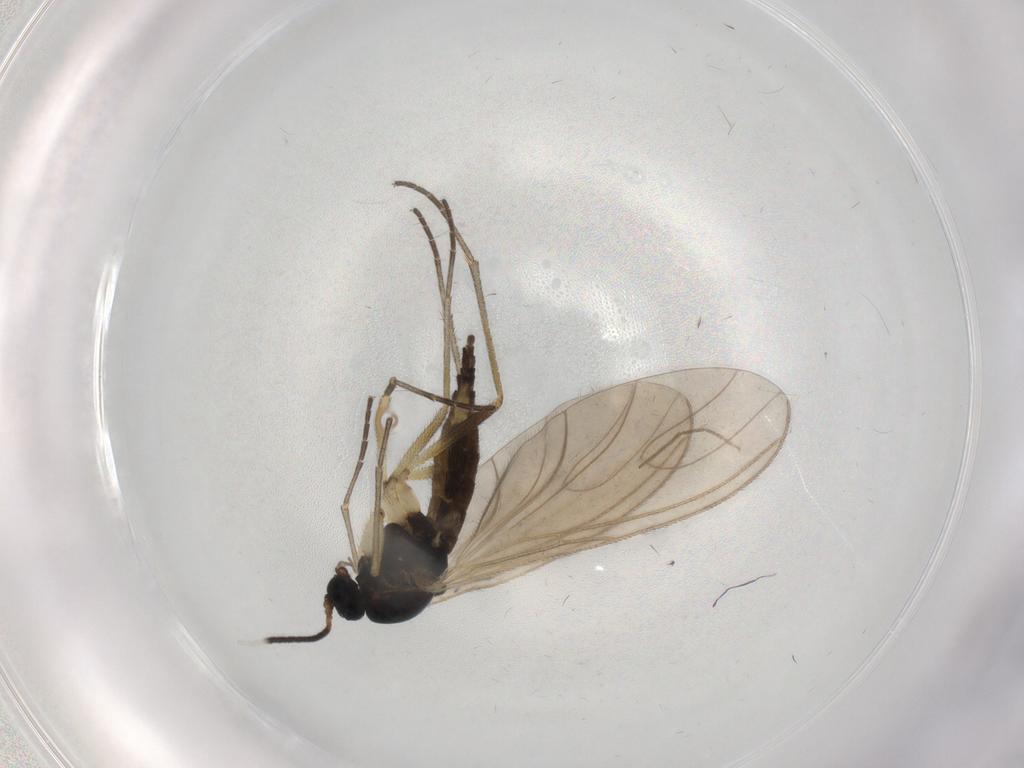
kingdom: Animalia
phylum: Arthropoda
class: Insecta
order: Diptera
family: Sciaridae
